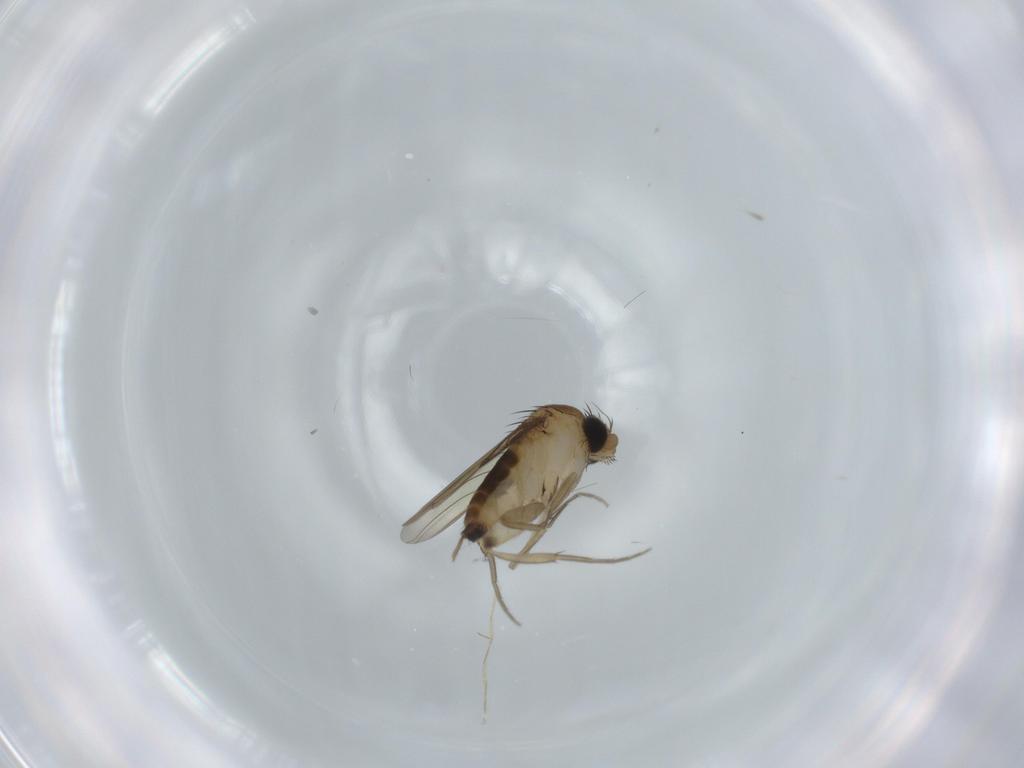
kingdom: Animalia
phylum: Arthropoda
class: Insecta
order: Diptera
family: Phoridae
